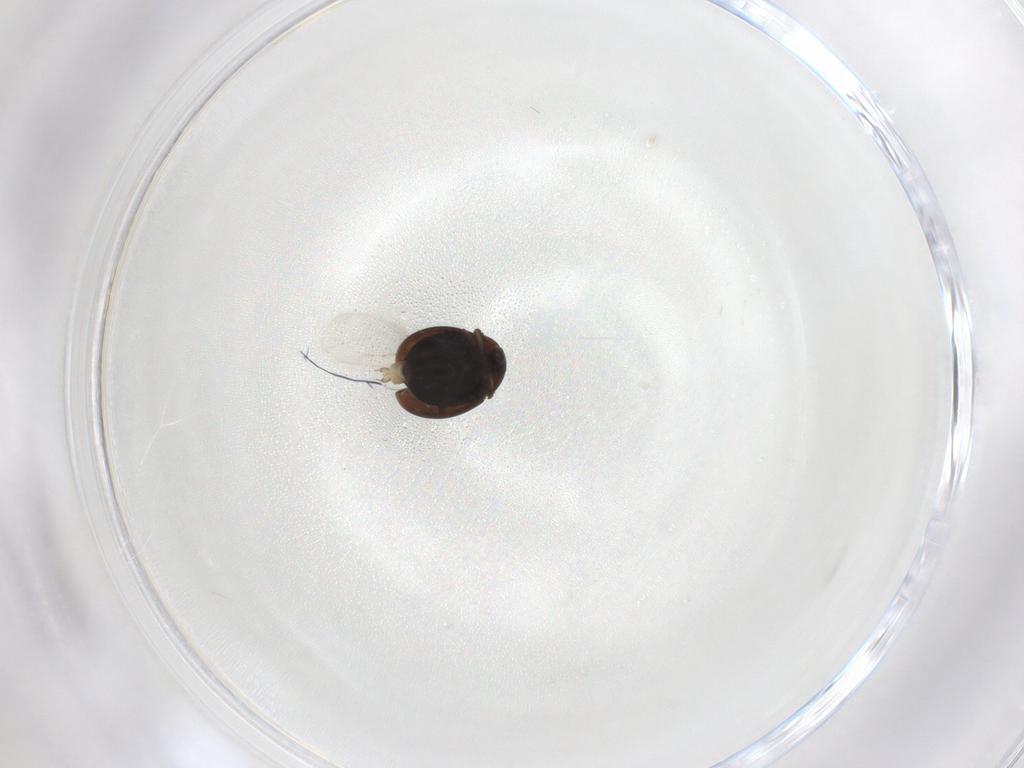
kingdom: Animalia
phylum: Arthropoda
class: Insecta
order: Coleoptera
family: Corylophidae
